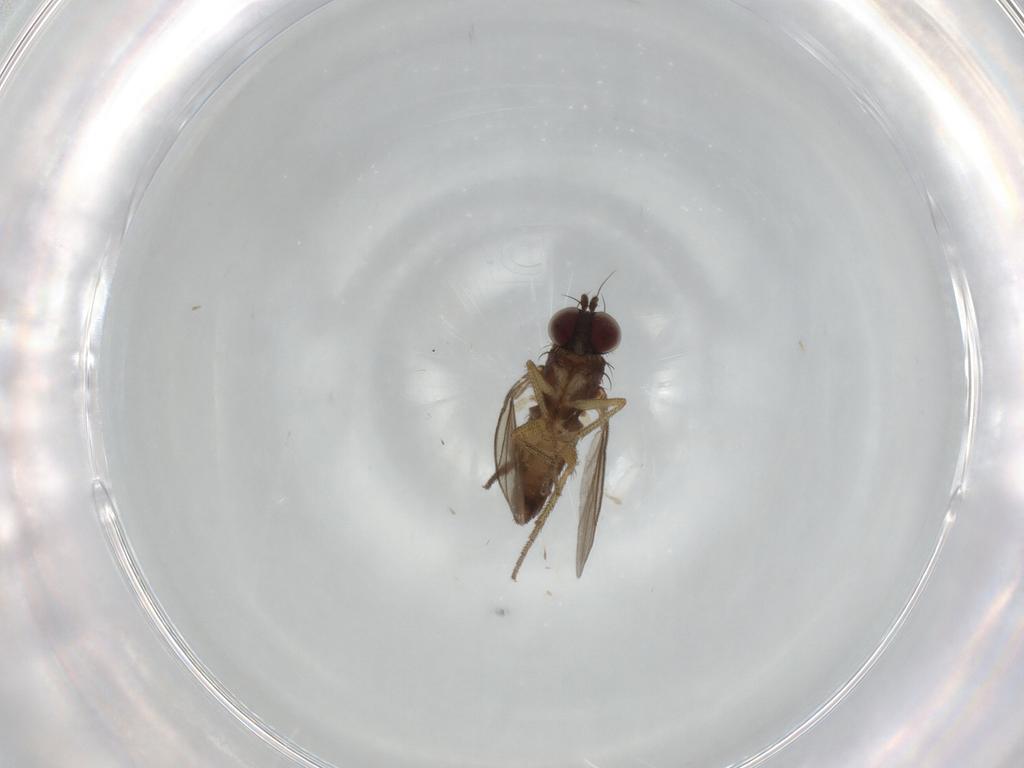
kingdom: Animalia
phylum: Arthropoda
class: Insecta
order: Diptera
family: Dolichopodidae
